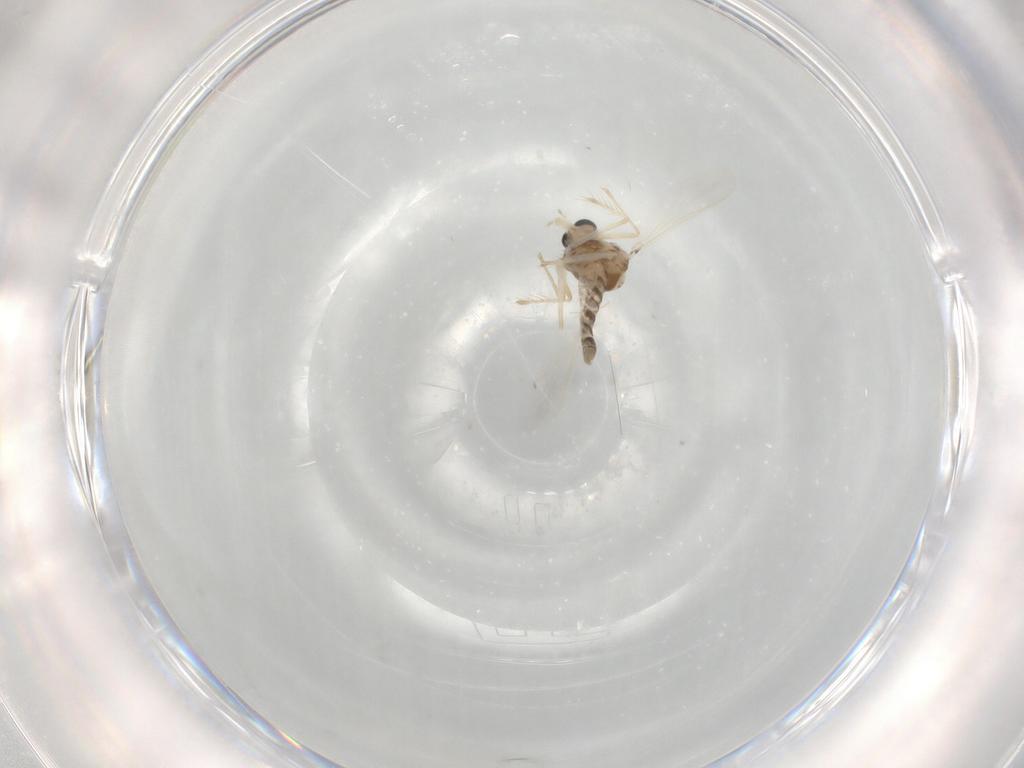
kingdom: Animalia
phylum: Arthropoda
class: Insecta
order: Diptera
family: Chironomidae
